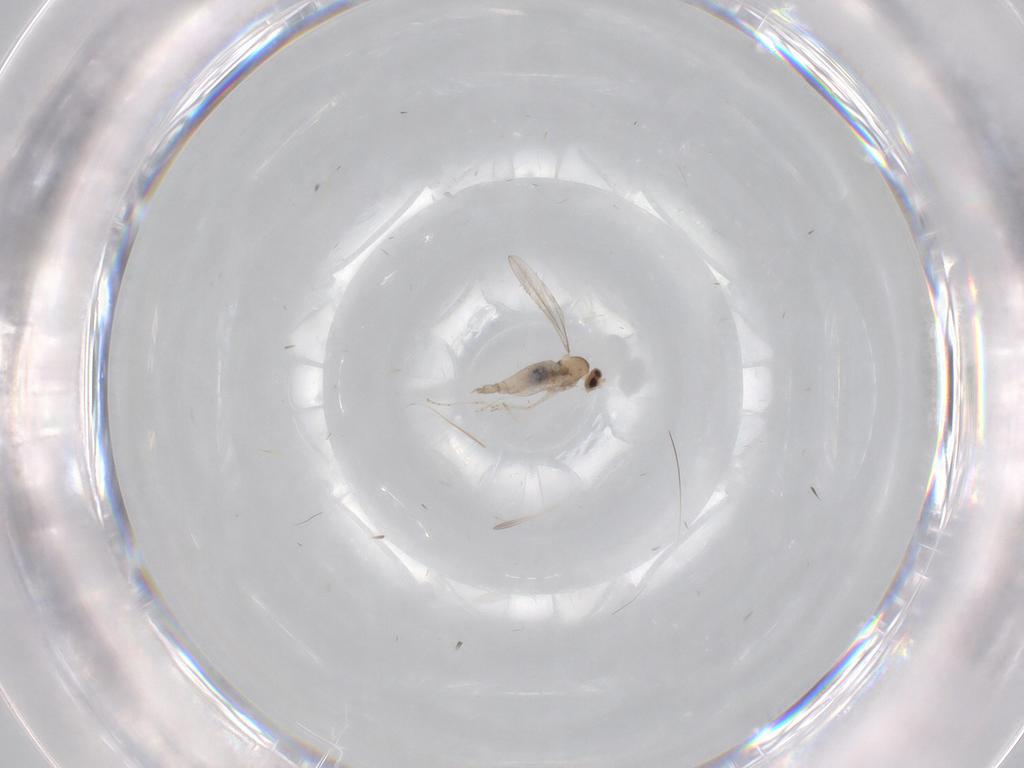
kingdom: Animalia
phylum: Arthropoda
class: Insecta
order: Diptera
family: Cecidomyiidae
